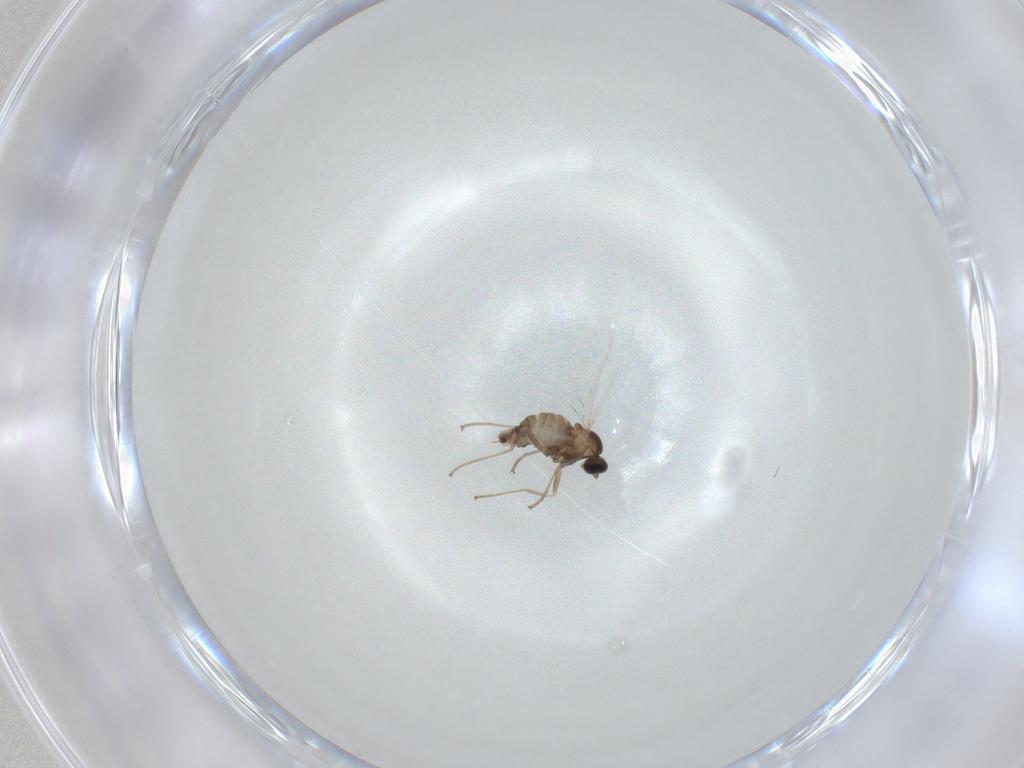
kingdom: Animalia
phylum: Arthropoda
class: Insecta
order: Diptera
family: Cecidomyiidae
